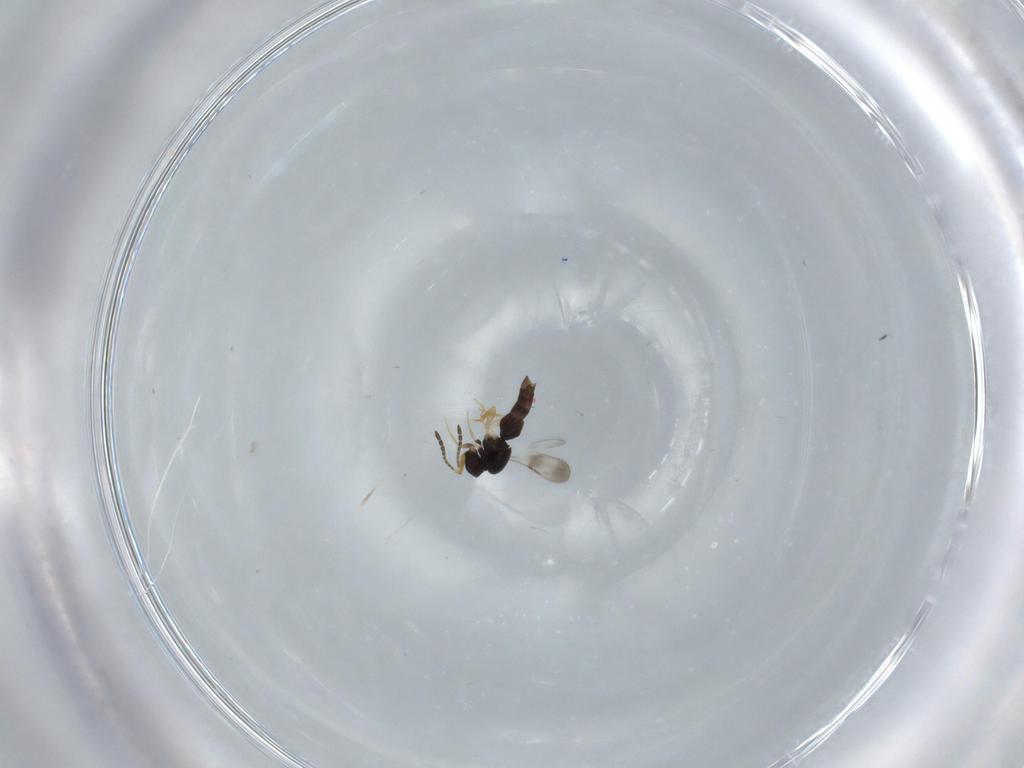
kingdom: Animalia
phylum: Arthropoda
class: Insecta
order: Hymenoptera
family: Ceraphronidae
